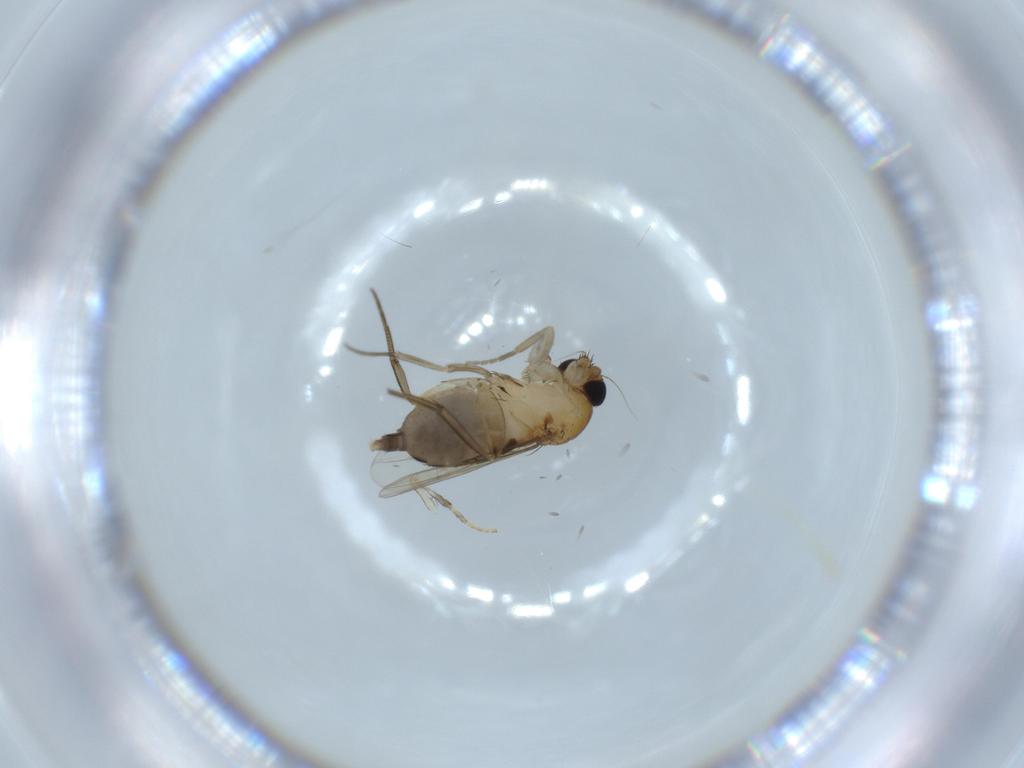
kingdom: Animalia
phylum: Arthropoda
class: Insecta
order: Diptera
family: Phoridae
